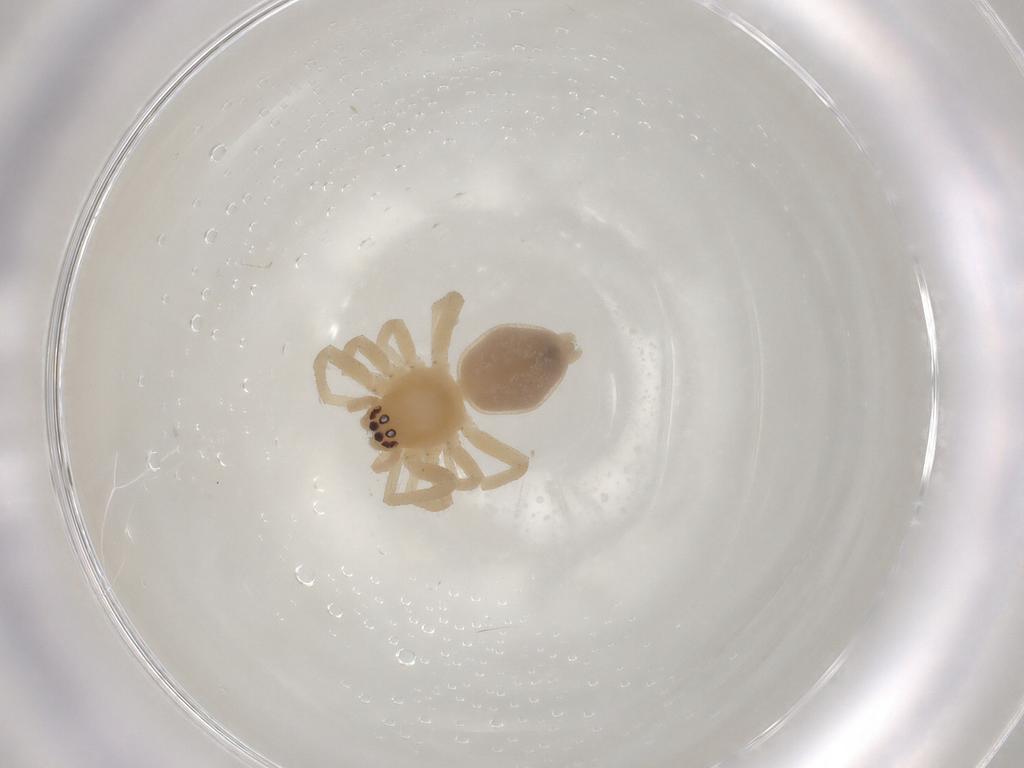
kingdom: Animalia
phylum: Arthropoda
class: Arachnida
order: Araneae
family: Cheiracanthiidae
